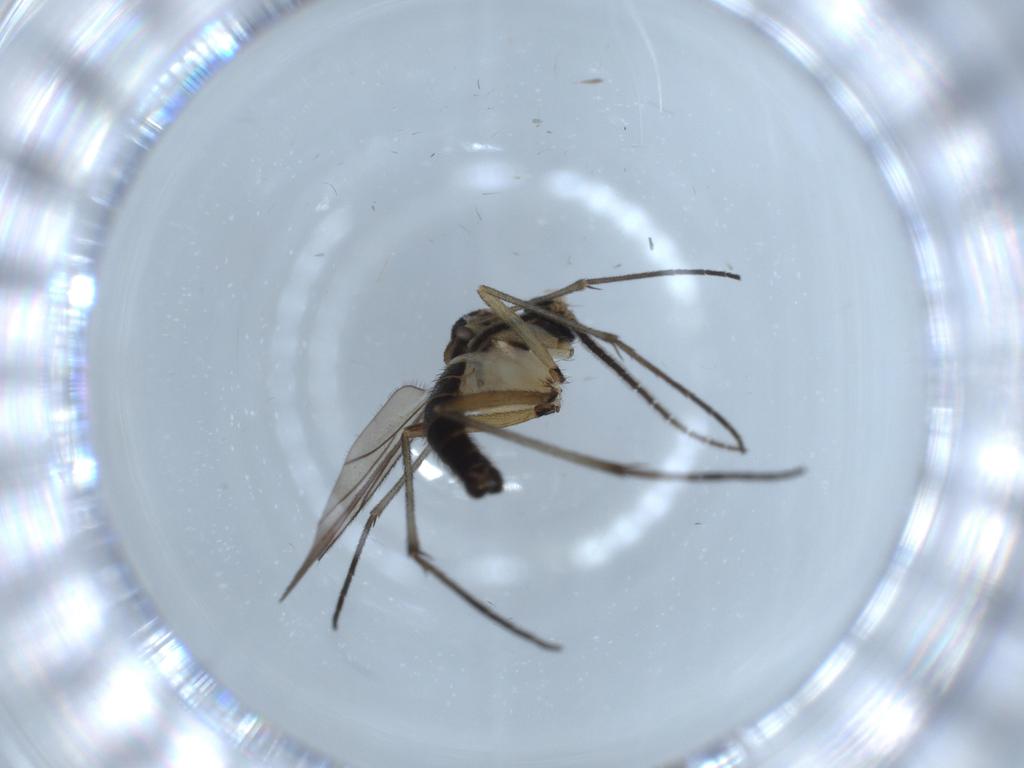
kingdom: Animalia
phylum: Arthropoda
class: Insecta
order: Diptera
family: Sciaridae
